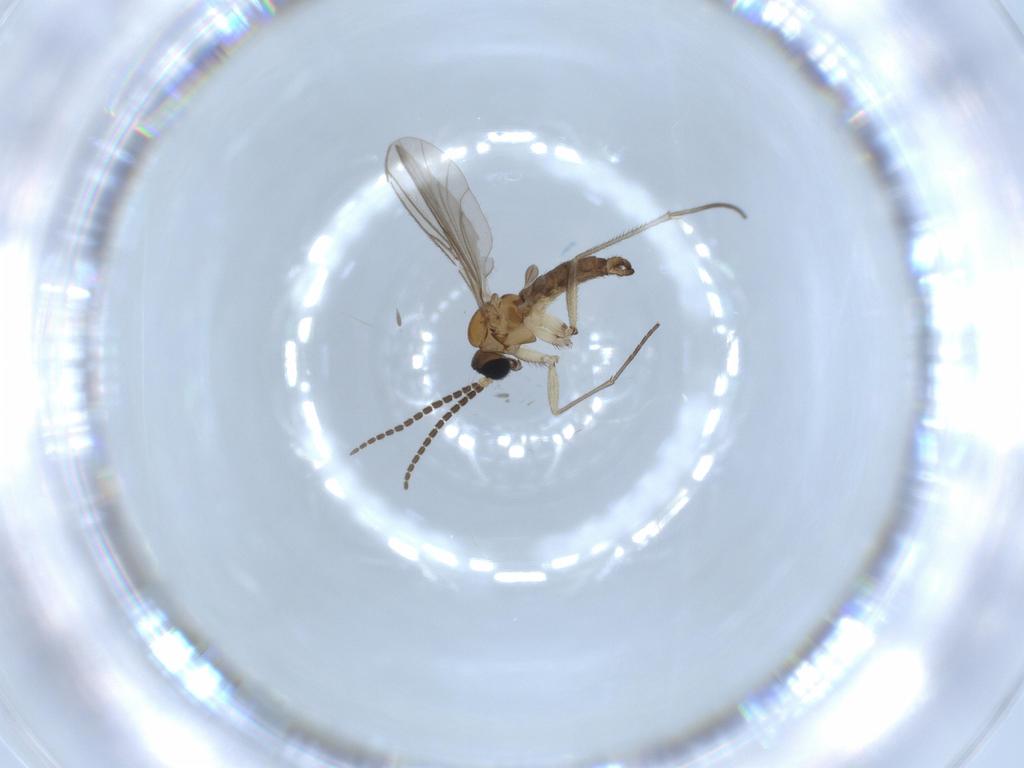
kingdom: Animalia
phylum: Arthropoda
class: Insecta
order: Diptera
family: Sciaridae
